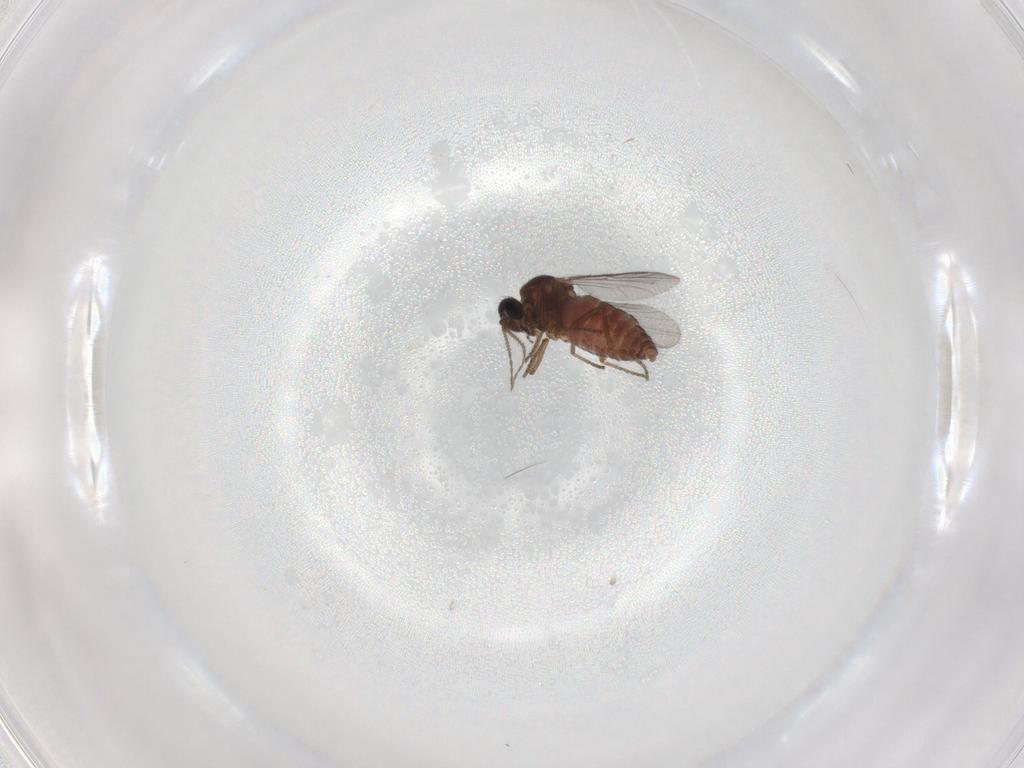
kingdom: Animalia
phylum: Arthropoda
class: Insecta
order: Diptera
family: Ceratopogonidae
